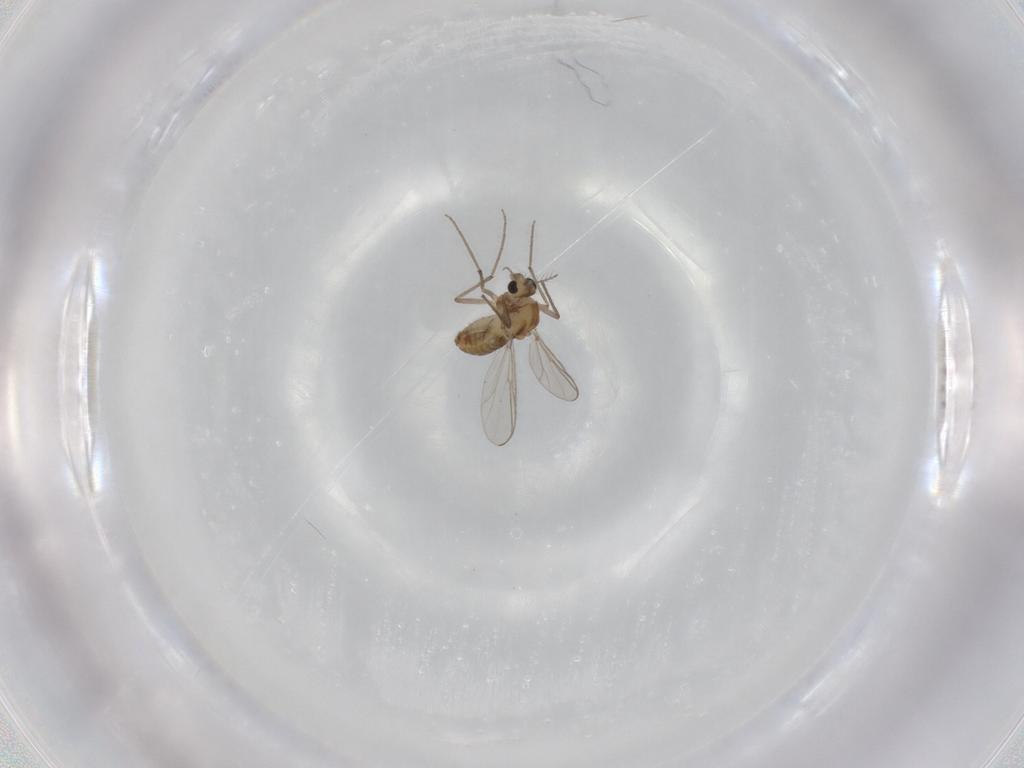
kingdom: Animalia
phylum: Arthropoda
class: Insecta
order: Diptera
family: Chironomidae
